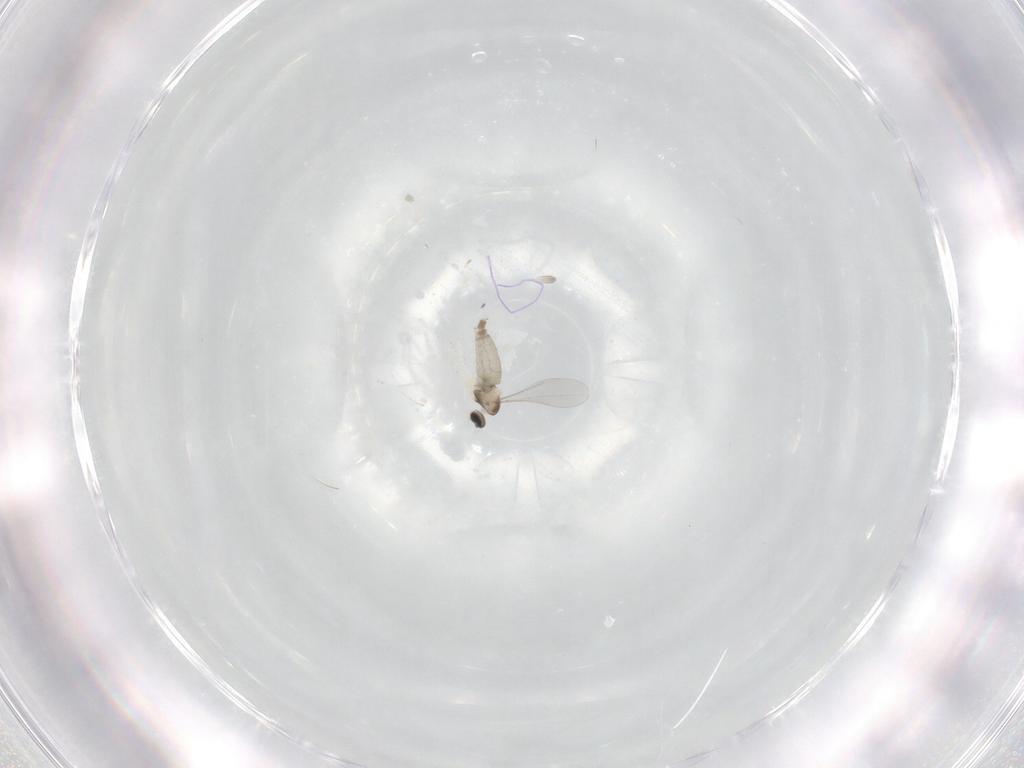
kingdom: Animalia
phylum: Arthropoda
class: Insecta
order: Diptera
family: Cecidomyiidae
